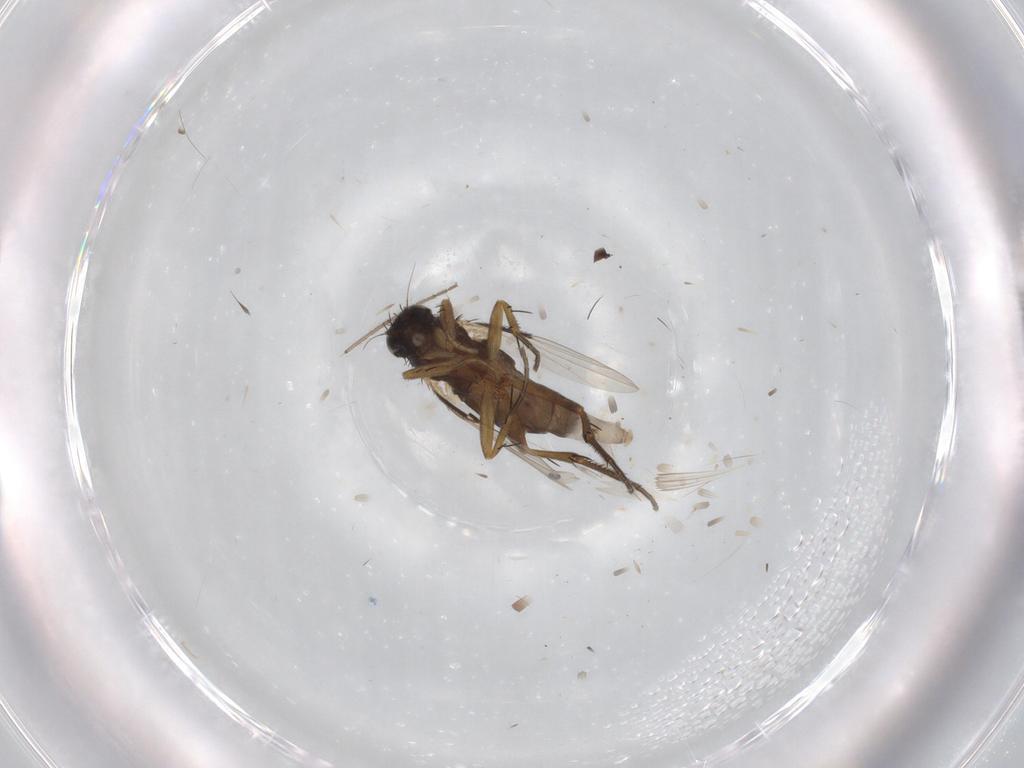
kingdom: Animalia
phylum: Arthropoda
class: Insecta
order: Diptera
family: Phoridae
